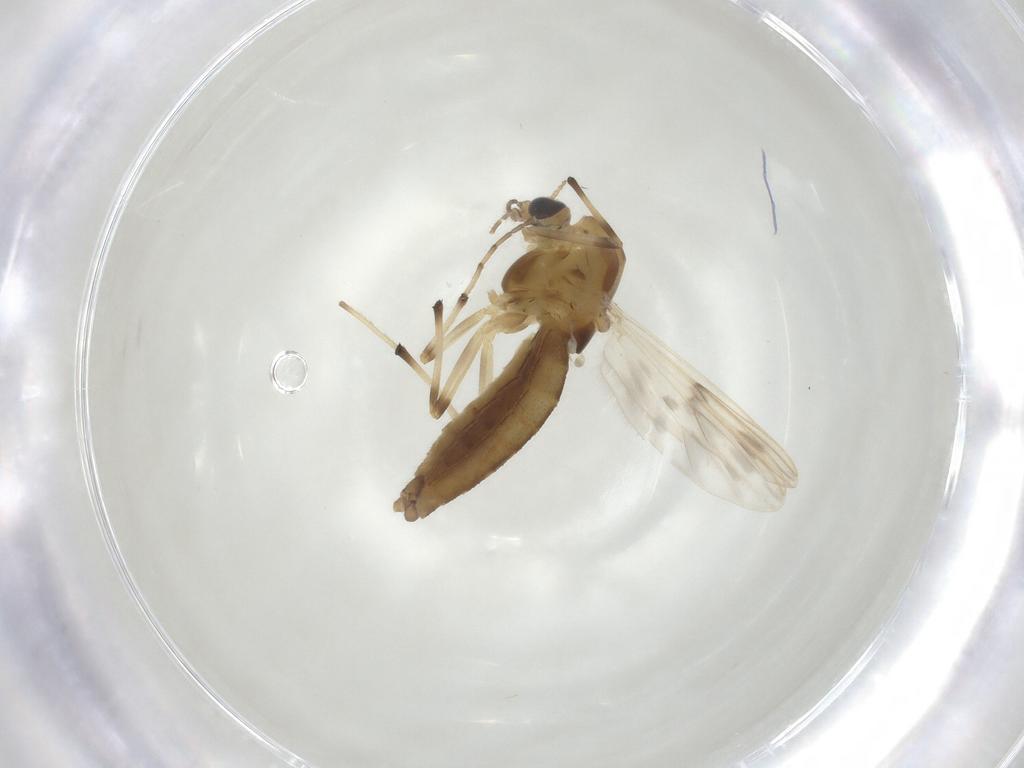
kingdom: Animalia
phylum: Arthropoda
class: Insecta
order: Diptera
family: Chironomidae
